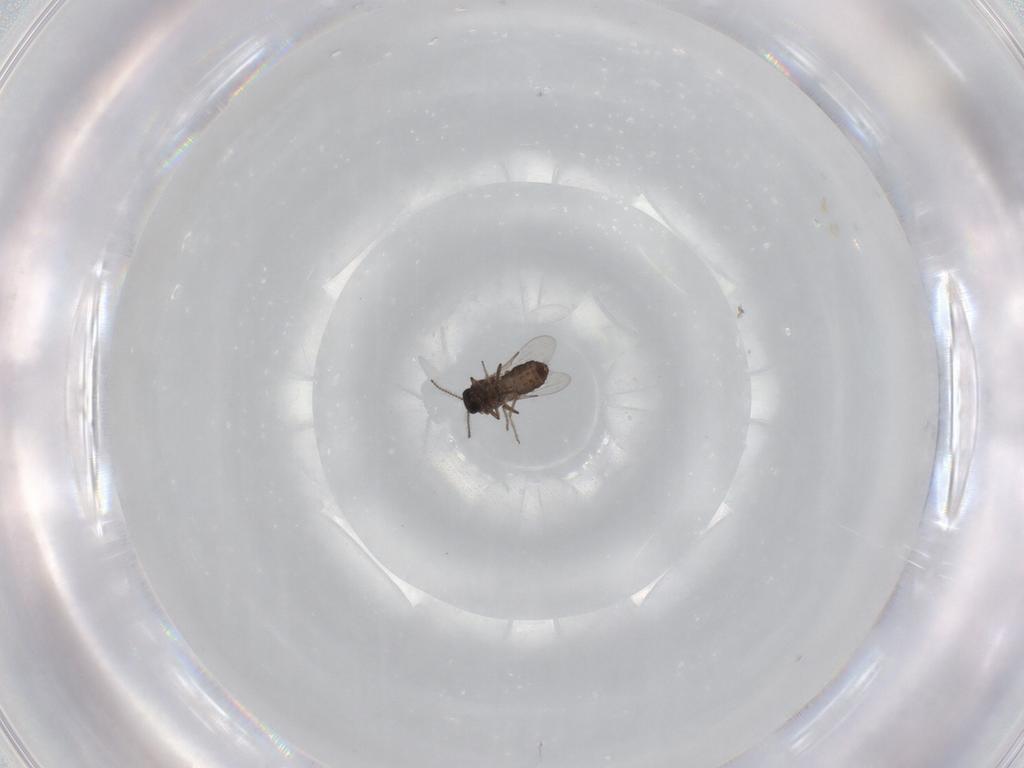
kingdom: Animalia
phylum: Arthropoda
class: Insecta
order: Diptera
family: Ceratopogonidae
